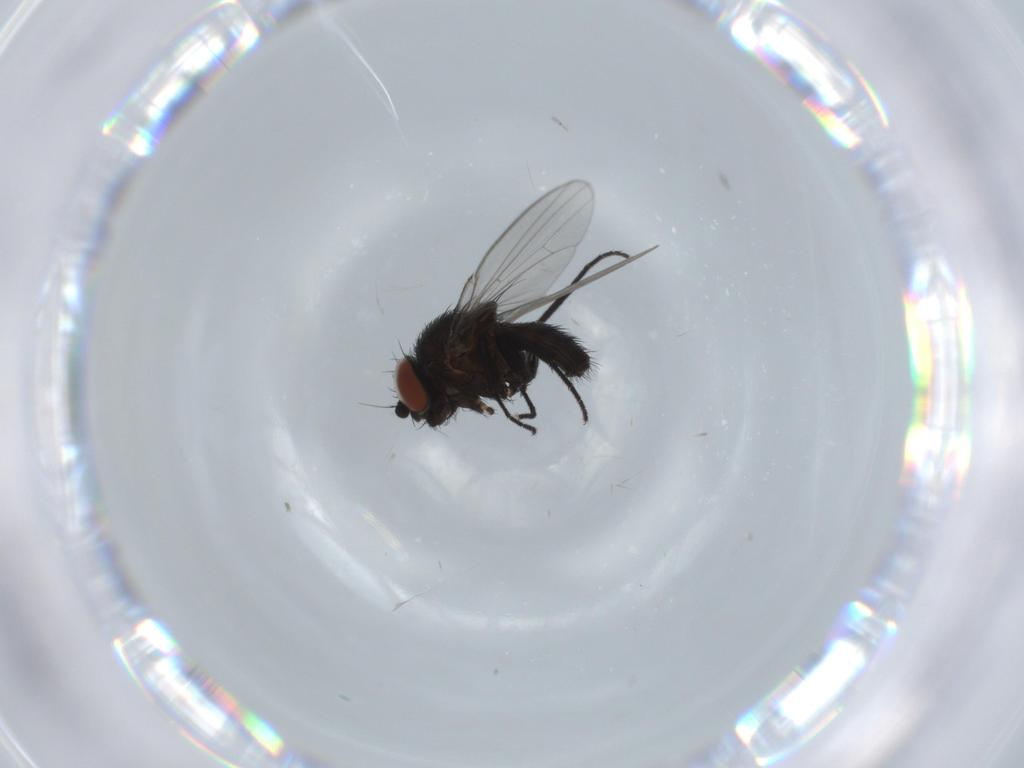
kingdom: Animalia
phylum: Arthropoda
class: Insecta
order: Diptera
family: Milichiidae
